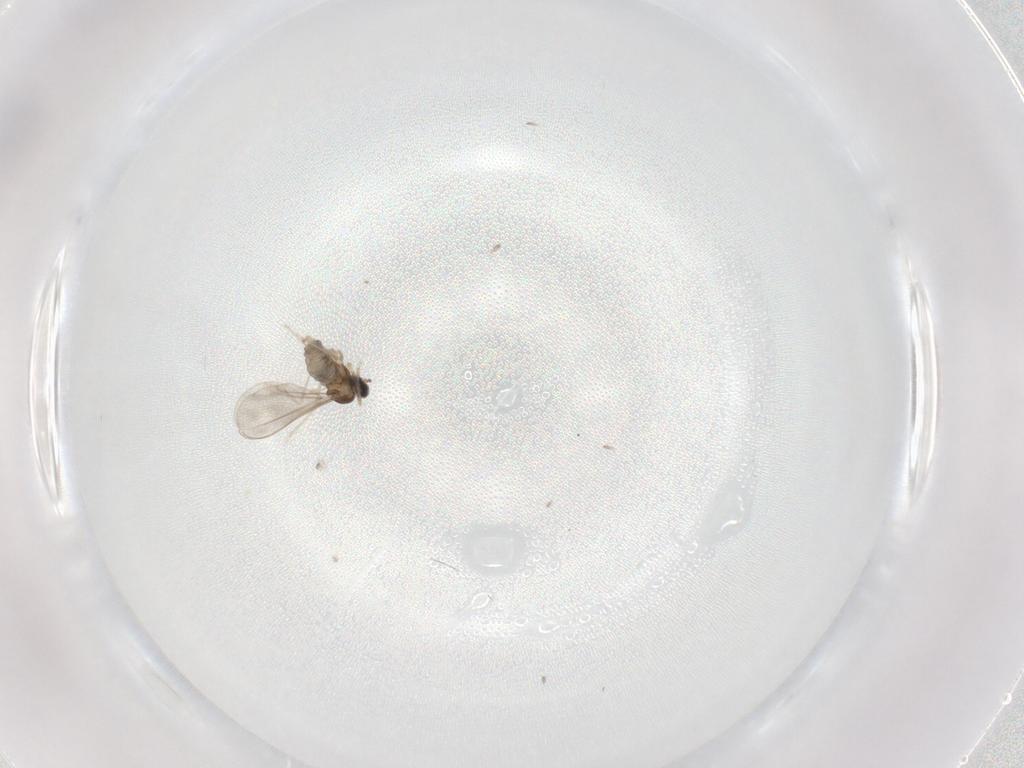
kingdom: Animalia
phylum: Arthropoda
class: Insecta
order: Diptera
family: Cecidomyiidae
